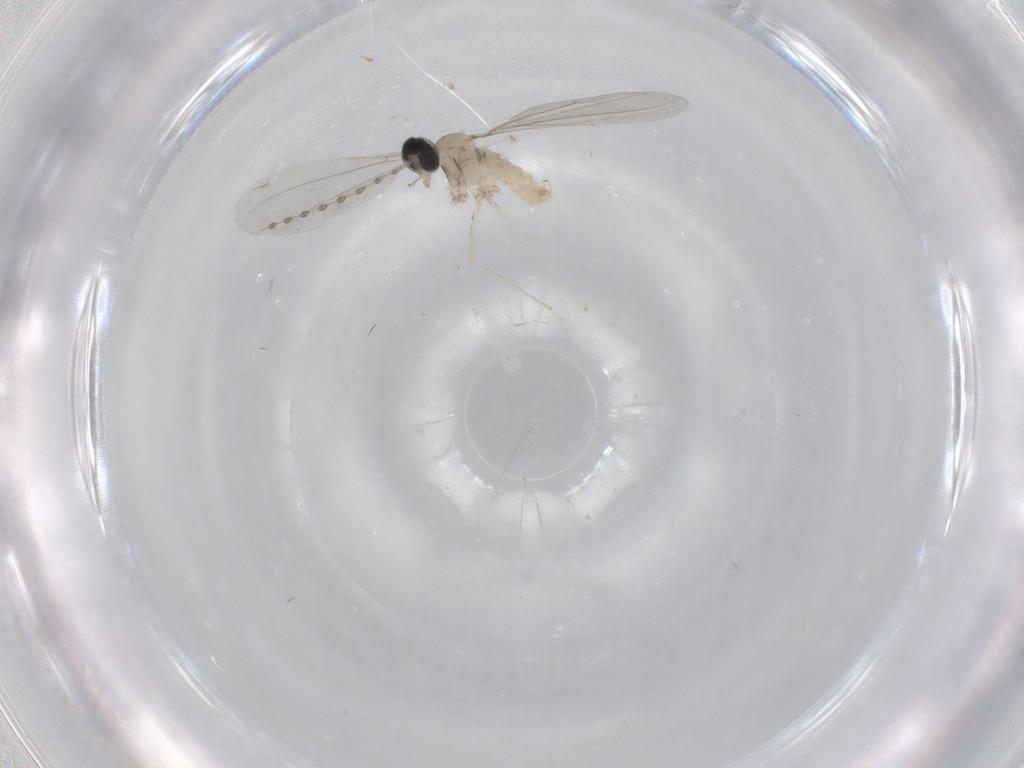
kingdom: Animalia
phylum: Arthropoda
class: Insecta
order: Diptera
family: Cecidomyiidae
